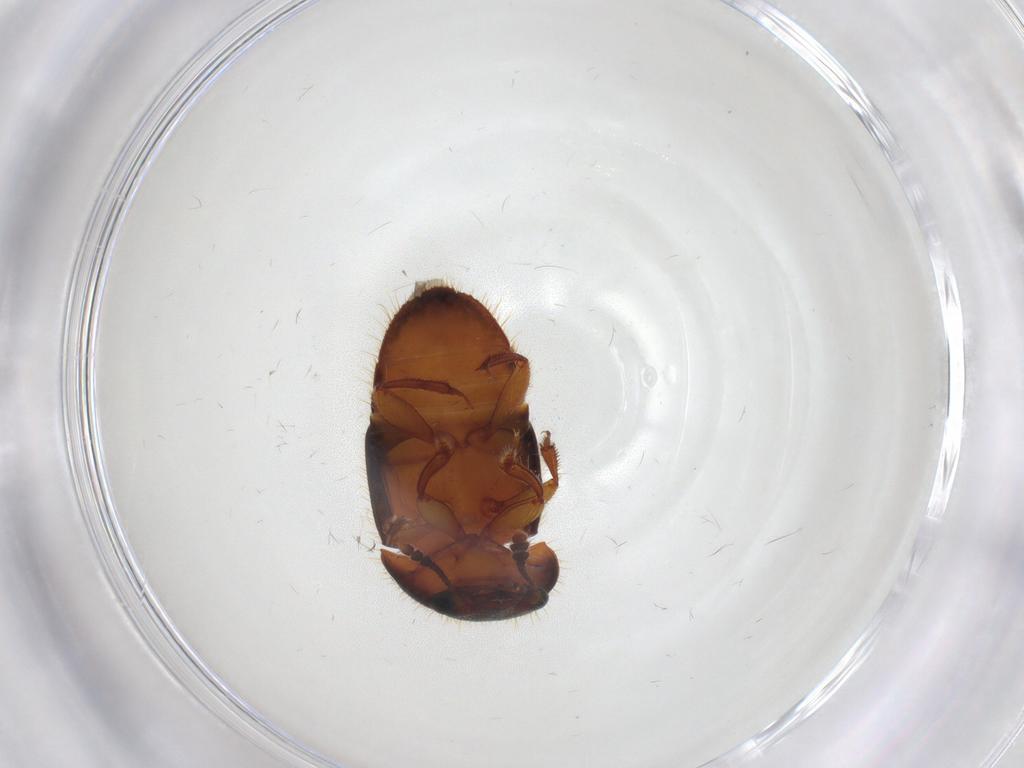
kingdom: Animalia
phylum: Arthropoda
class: Insecta
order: Coleoptera
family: Nitidulidae
